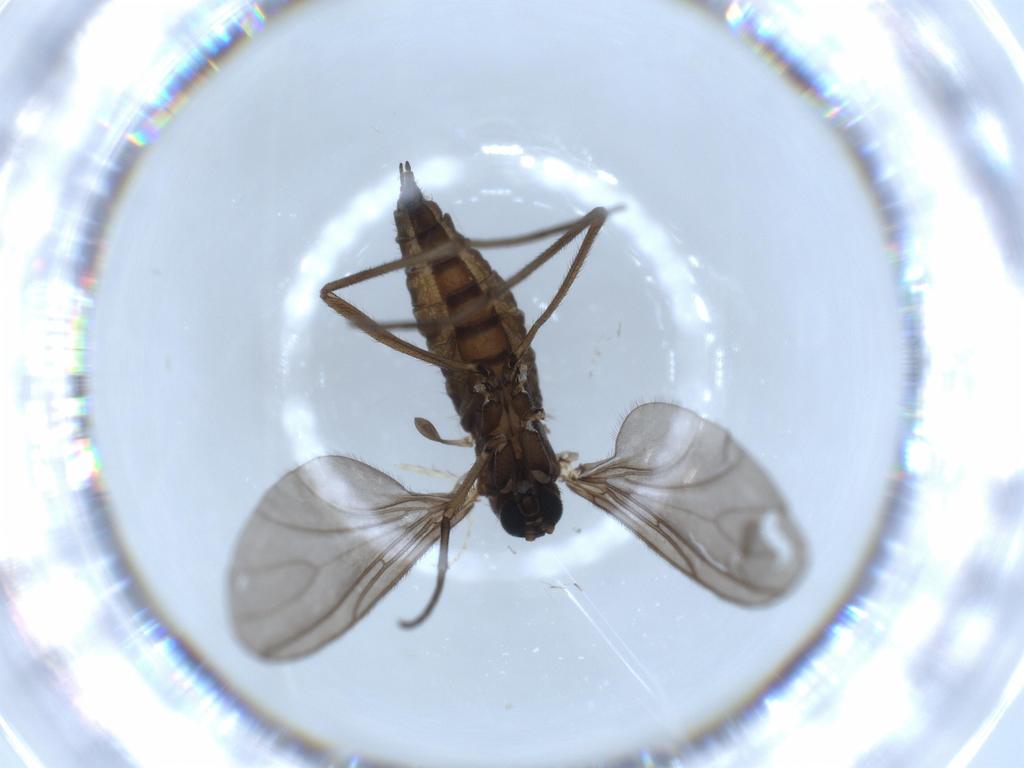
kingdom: Animalia
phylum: Arthropoda
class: Insecta
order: Diptera
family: Sciaridae
